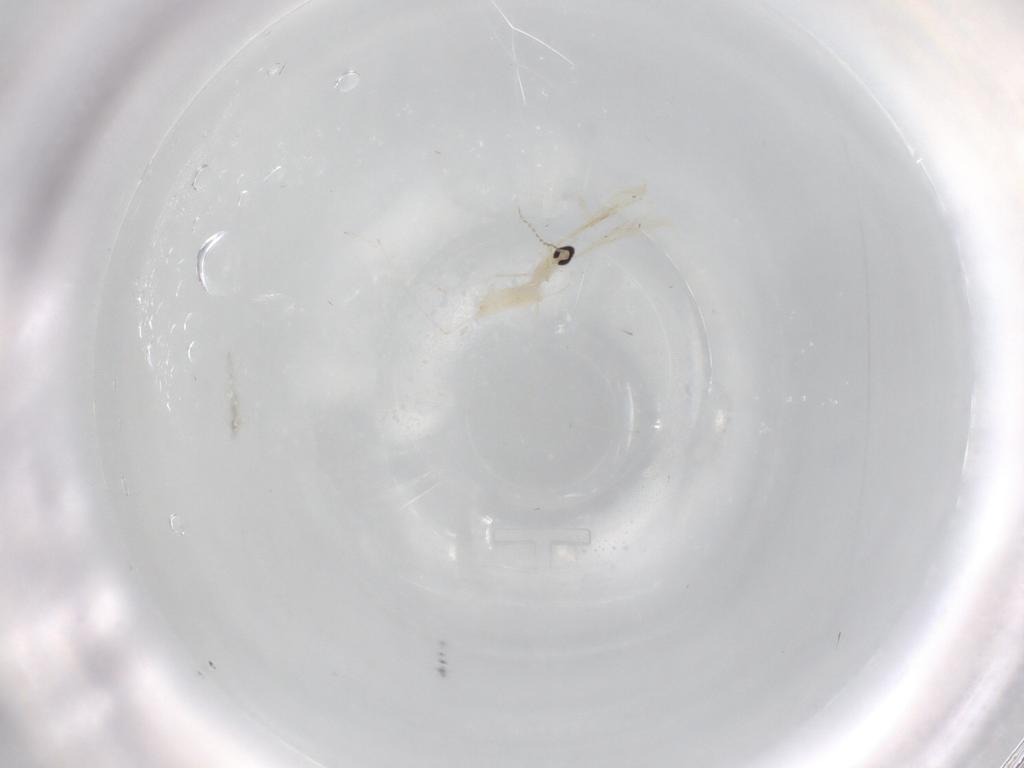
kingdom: Animalia
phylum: Arthropoda
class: Insecta
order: Diptera
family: Cecidomyiidae
